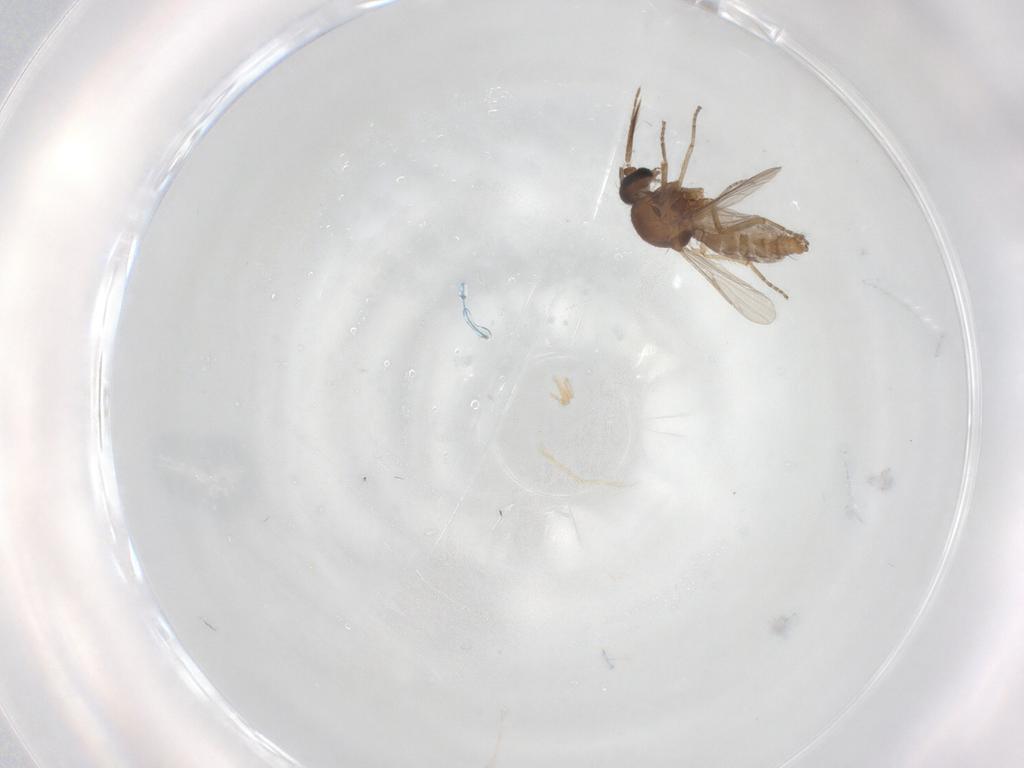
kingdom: Animalia
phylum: Arthropoda
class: Insecta
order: Diptera
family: Ceratopogonidae
